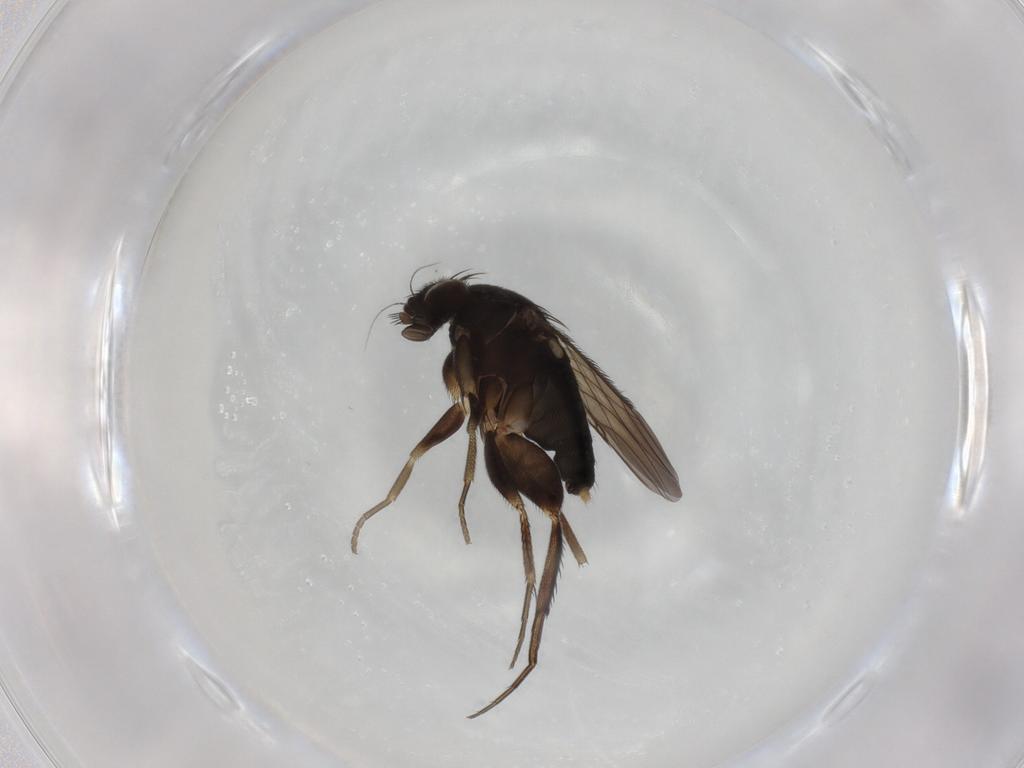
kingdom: Animalia
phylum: Arthropoda
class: Insecta
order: Diptera
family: Phoridae
